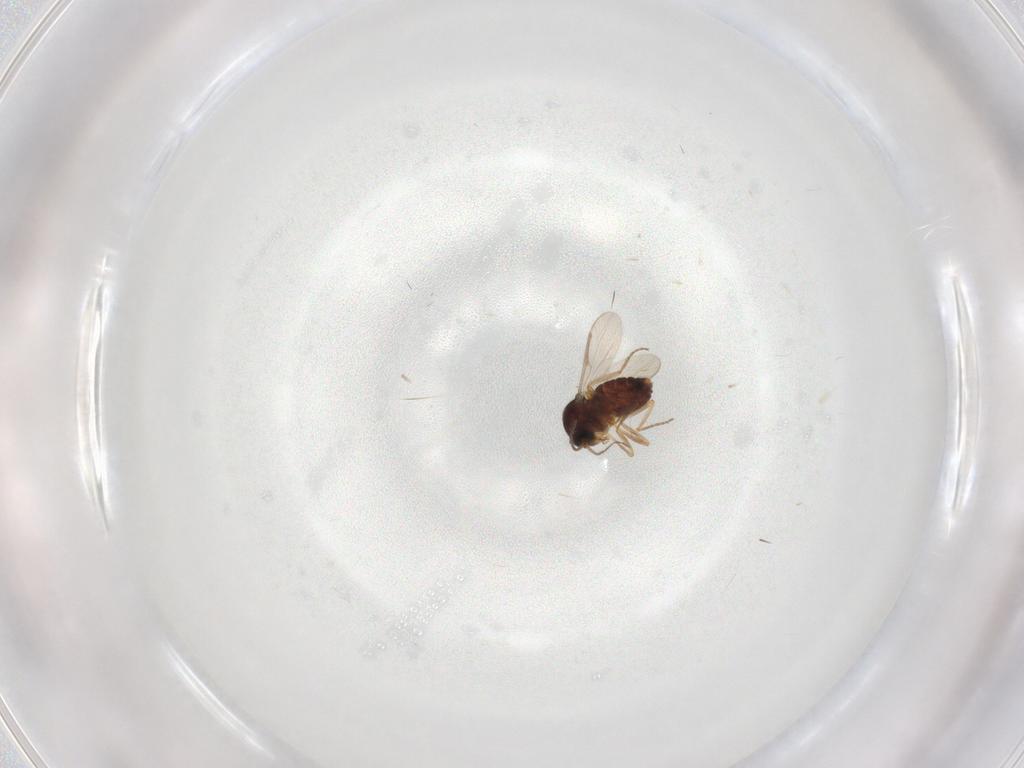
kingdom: Animalia
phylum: Arthropoda
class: Insecta
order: Diptera
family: Ceratopogonidae
